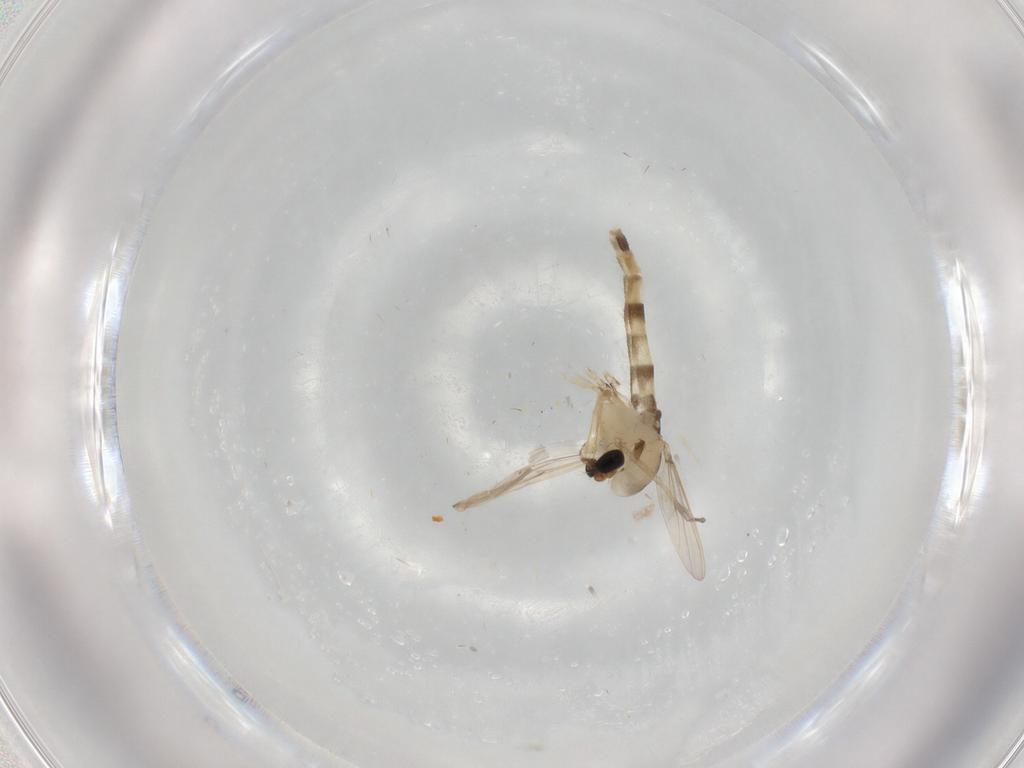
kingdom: Animalia
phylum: Arthropoda
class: Insecta
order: Diptera
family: Chironomidae
